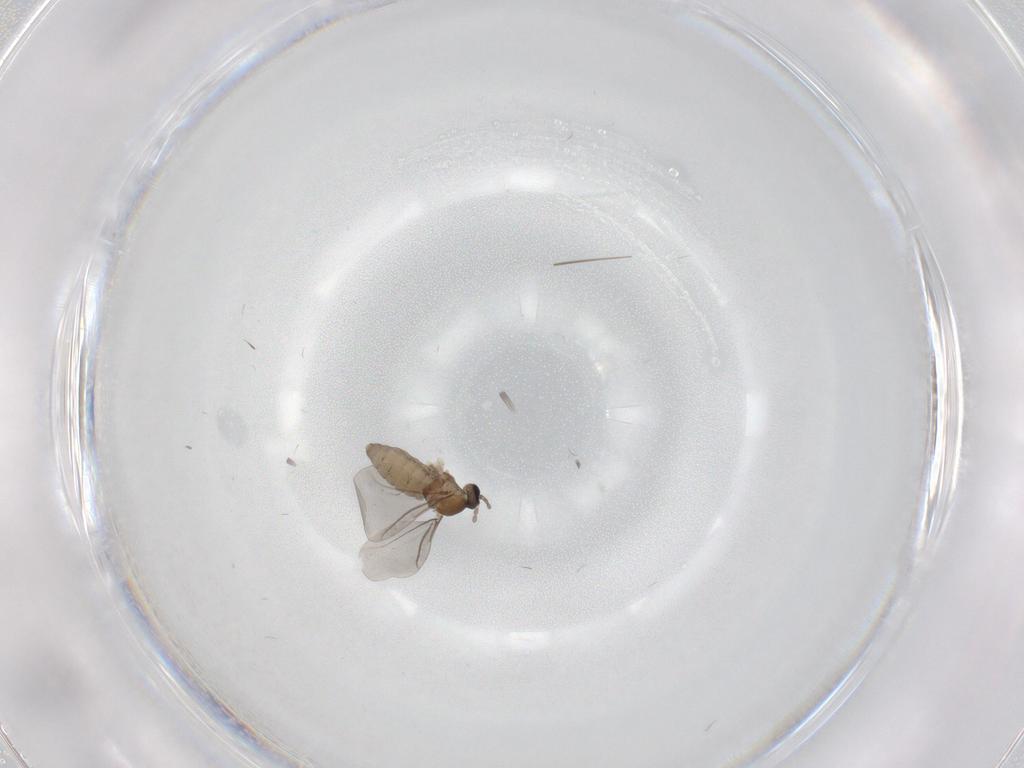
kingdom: Animalia
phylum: Arthropoda
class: Insecta
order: Diptera
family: Cecidomyiidae
